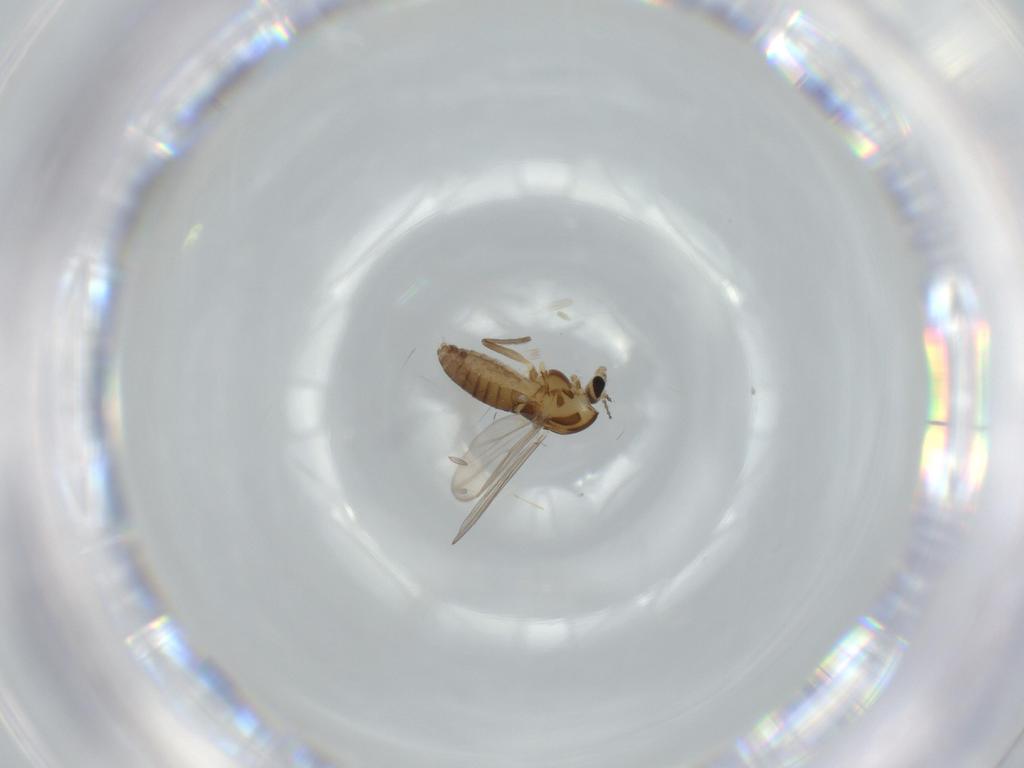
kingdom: Animalia
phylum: Arthropoda
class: Insecta
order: Diptera
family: Chironomidae
